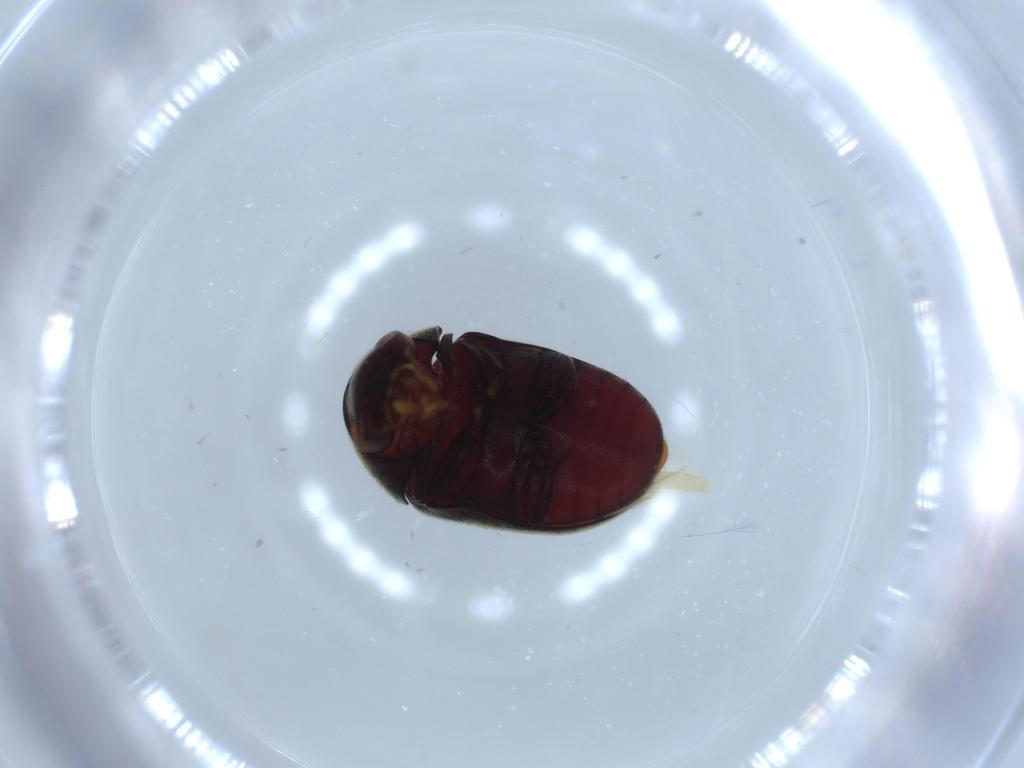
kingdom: Animalia
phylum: Arthropoda
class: Insecta
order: Coleoptera
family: Ptinidae
